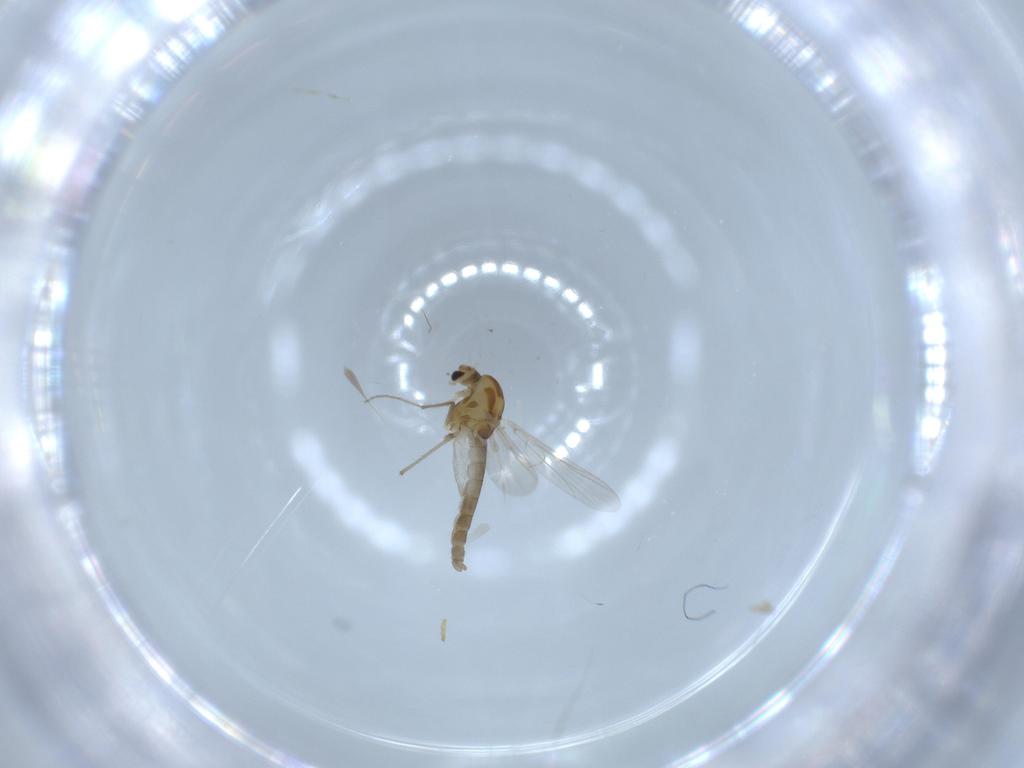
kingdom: Animalia
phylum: Arthropoda
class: Insecta
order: Diptera
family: Chironomidae
